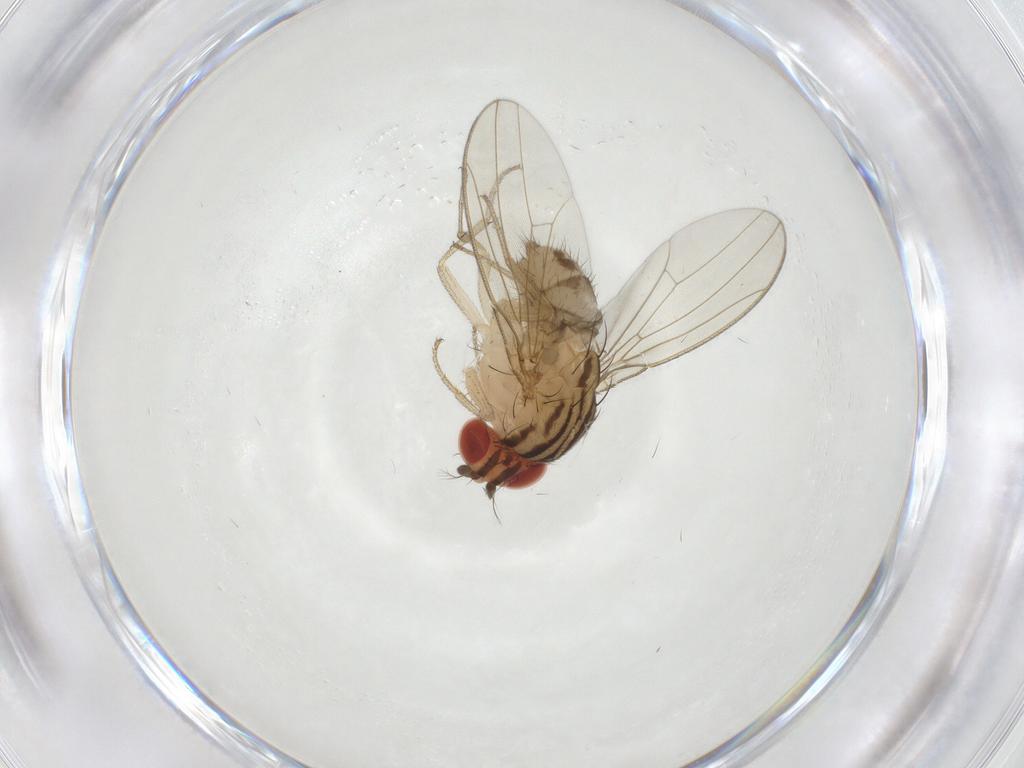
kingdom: Animalia
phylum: Arthropoda
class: Insecta
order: Diptera
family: Drosophilidae
